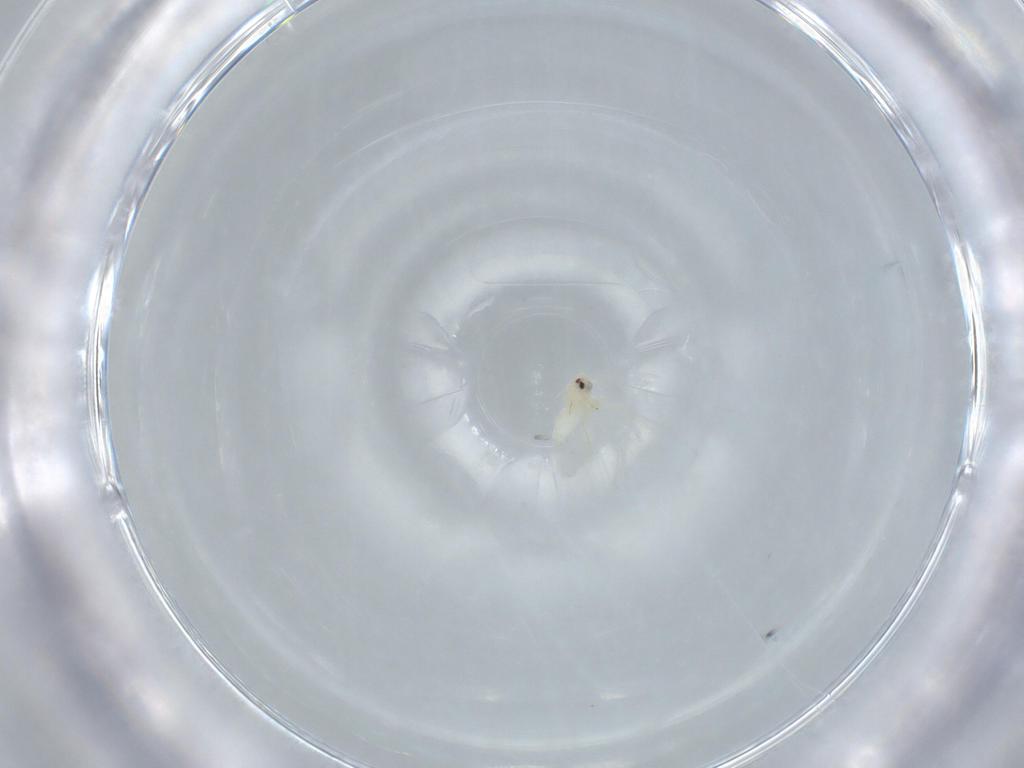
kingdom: Animalia
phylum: Arthropoda
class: Insecta
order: Hemiptera
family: Aleyrodidae
